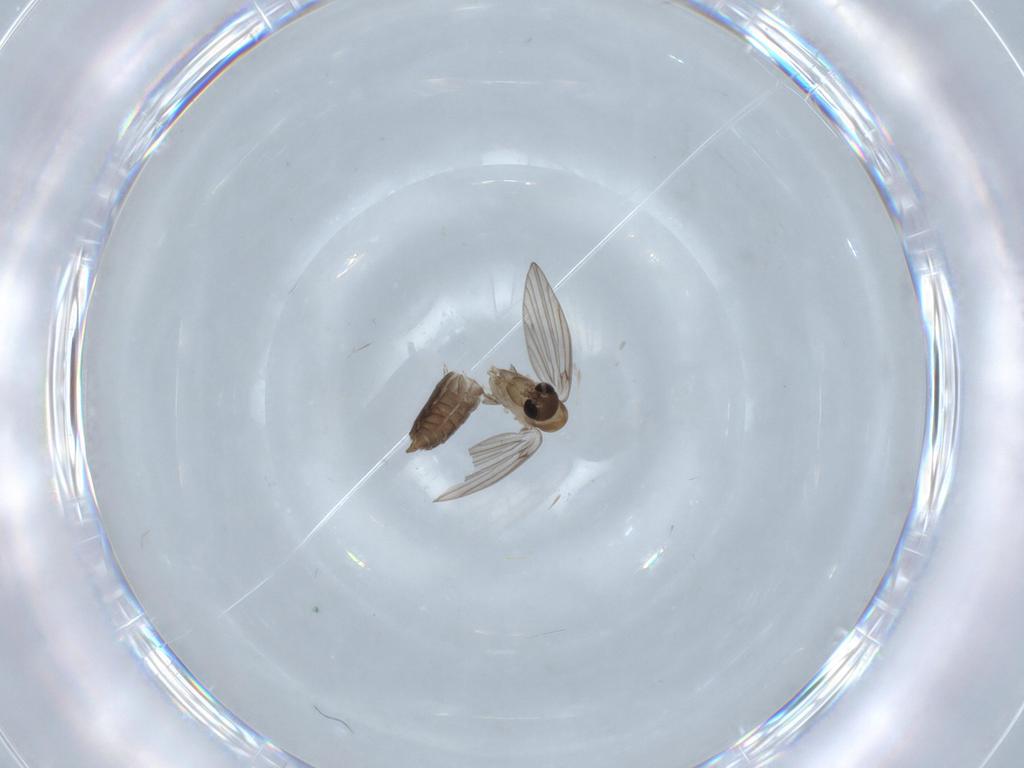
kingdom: Animalia
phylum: Arthropoda
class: Insecta
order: Diptera
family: Psychodidae
